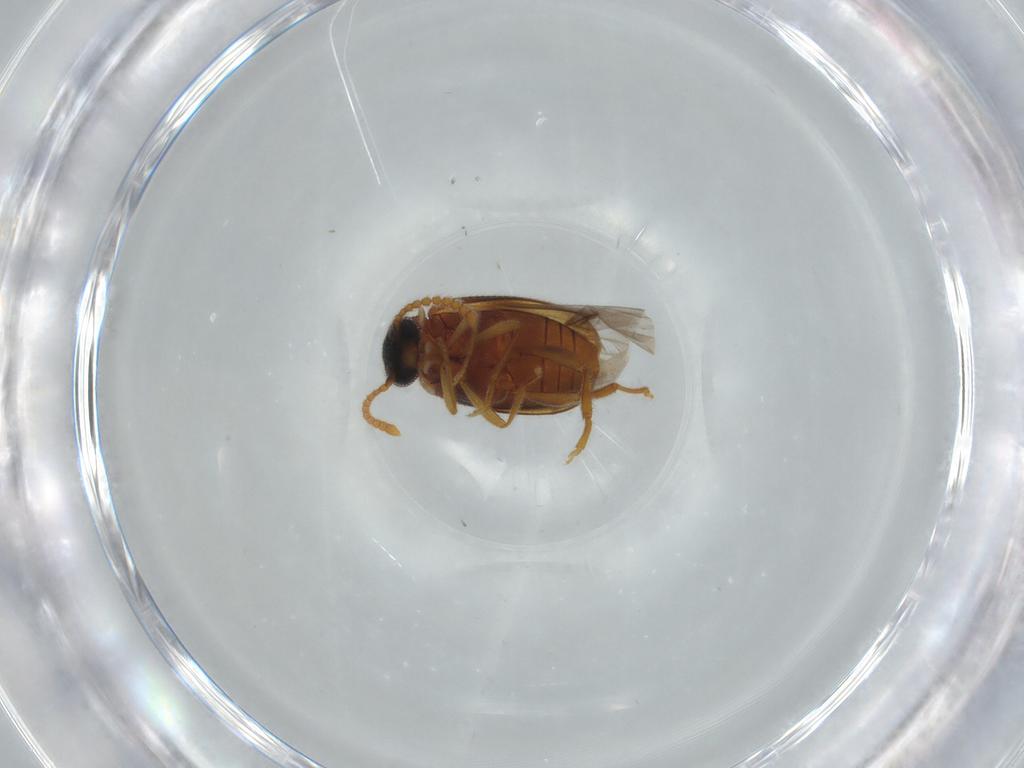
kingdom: Animalia
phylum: Arthropoda
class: Insecta
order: Coleoptera
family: Aderidae
